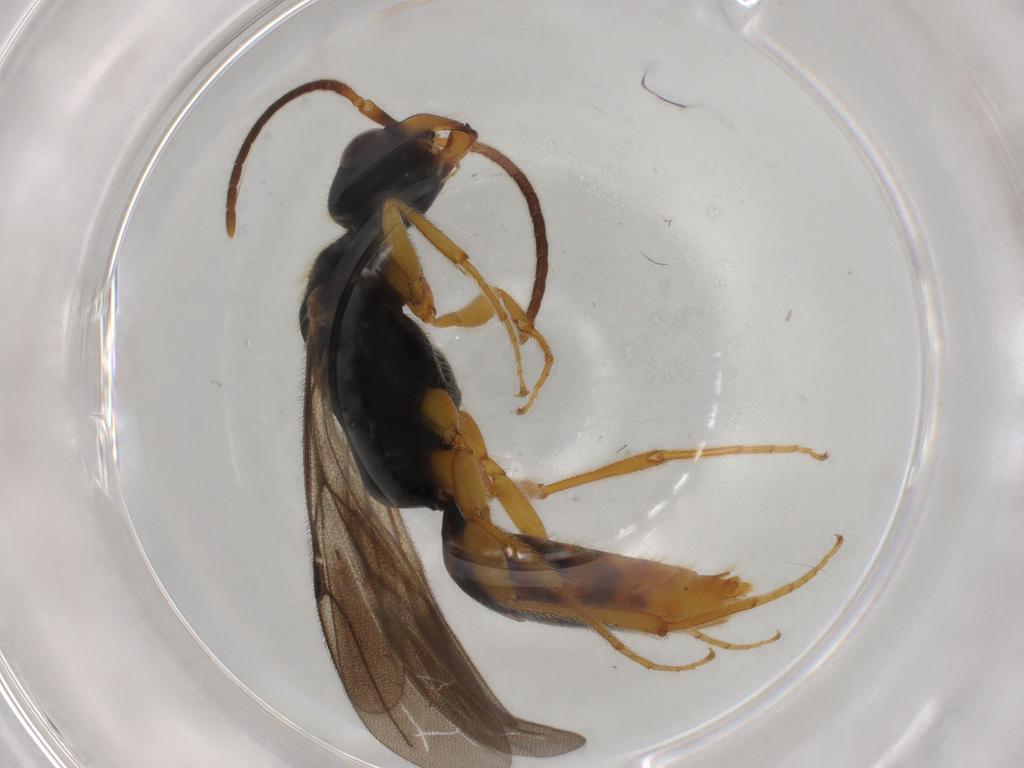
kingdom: Animalia
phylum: Arthropoda
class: Insecta
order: Hymenoptera
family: Bethylidae
